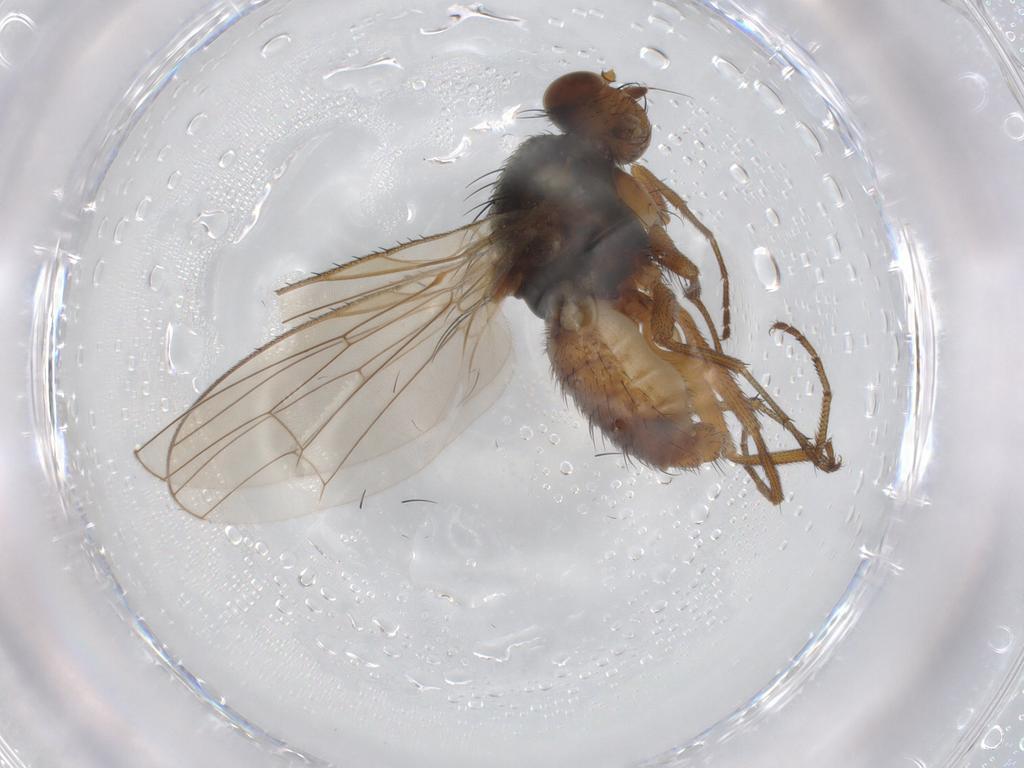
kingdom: Animalia
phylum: Arthropoda
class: Insecta
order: Diptera
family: Heleomyzidae
